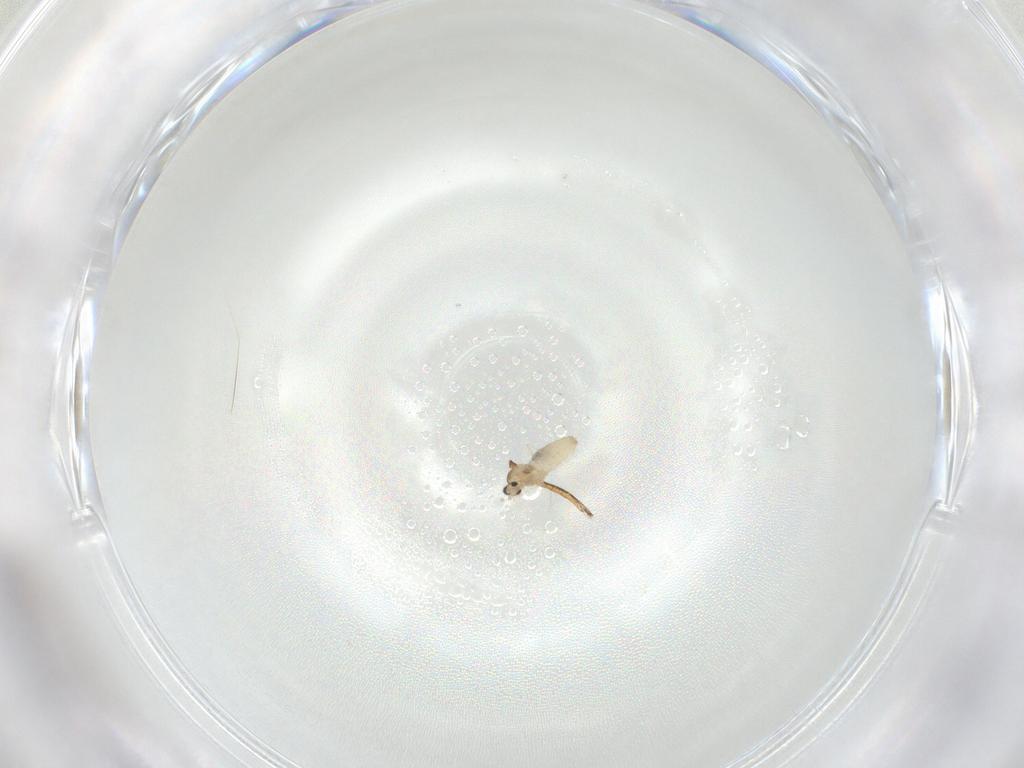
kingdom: Animalia
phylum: Arthropoda
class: Insecta
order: Diptera
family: Cecidomyiidae
